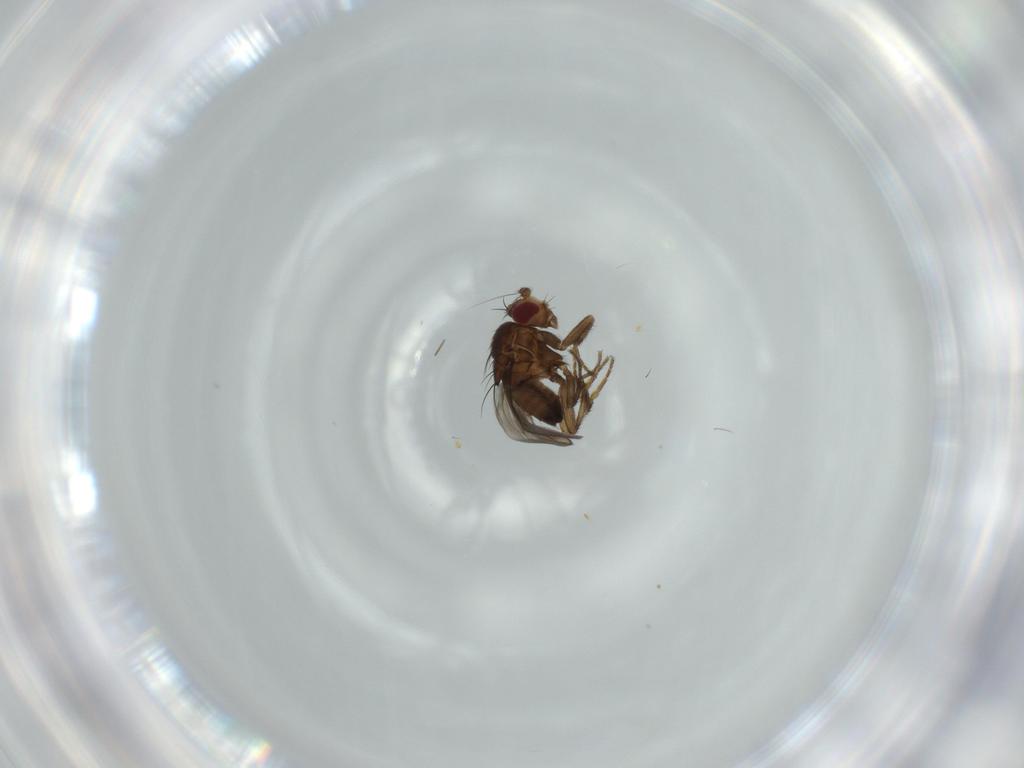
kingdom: Animalia
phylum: Arthropoda
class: Insecta
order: Diptera
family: Sphaeroceridae
